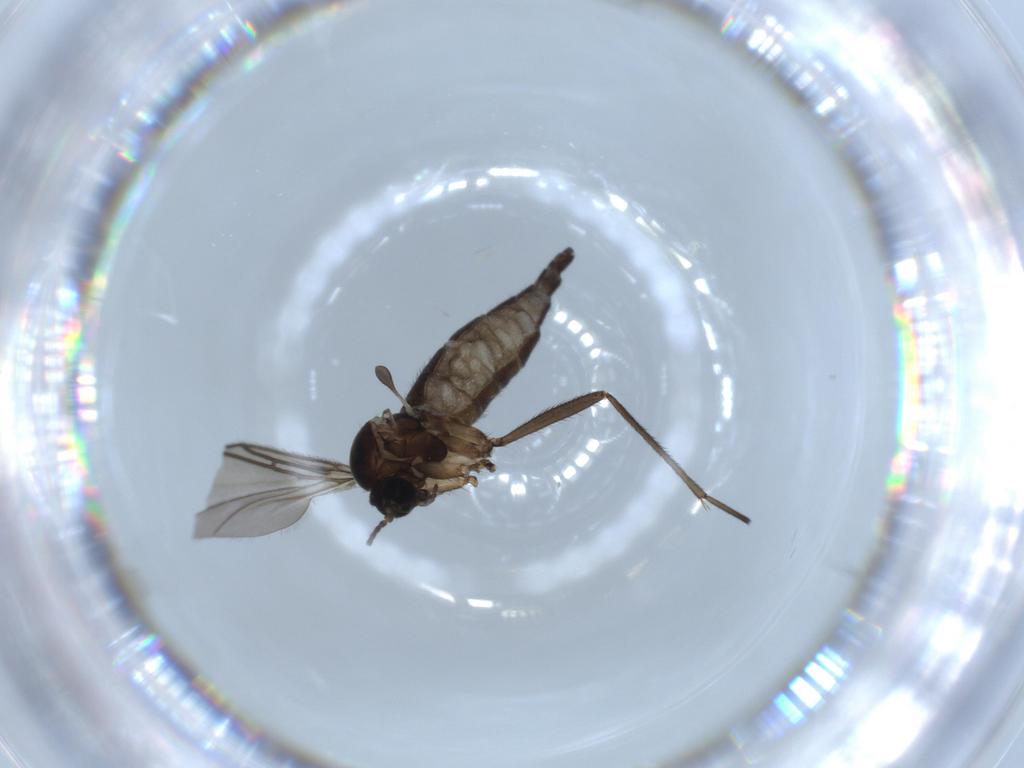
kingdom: Animalia
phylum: Arthropoda
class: Insecta
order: Diptera
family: Sciaridae
